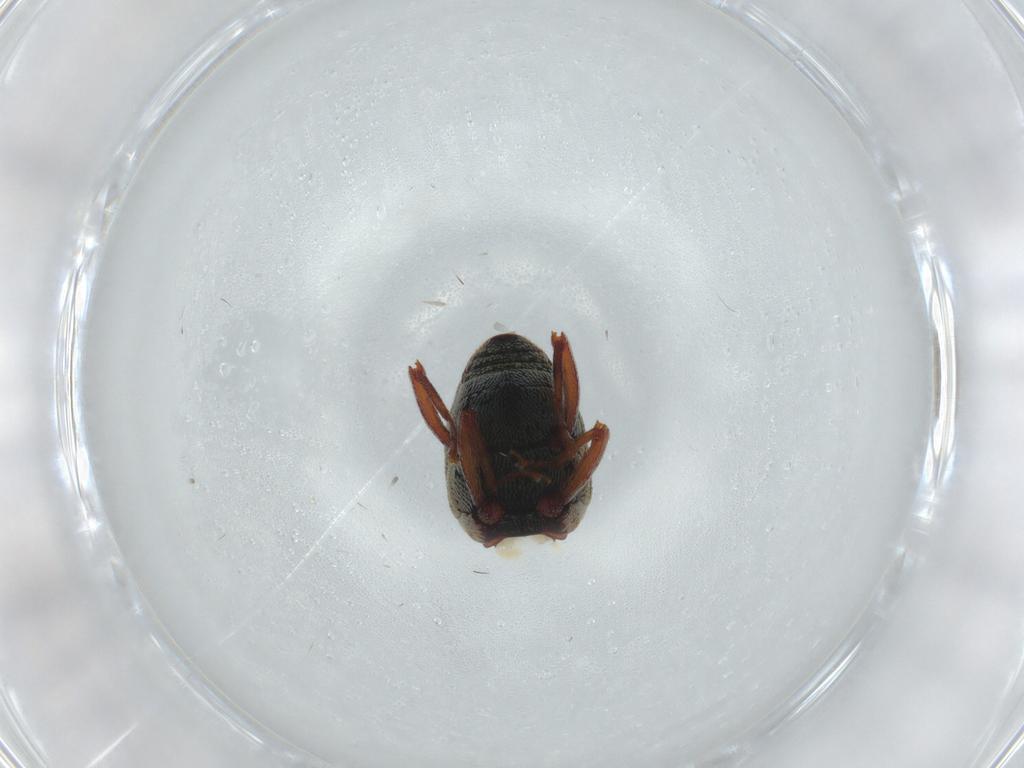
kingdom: Animalia
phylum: Arthropoda
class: Insecta
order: Coleoptera
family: Curculionidae
